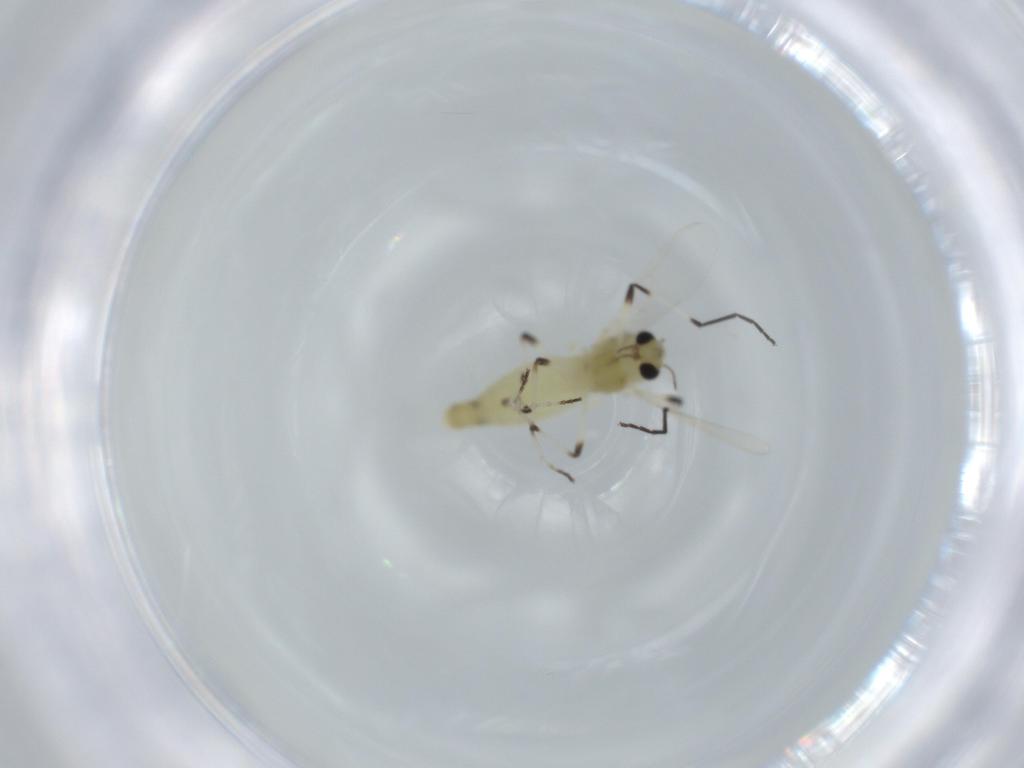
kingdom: Animalia
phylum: Arthropoda
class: Insecta
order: Diptera
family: Chironomidae
